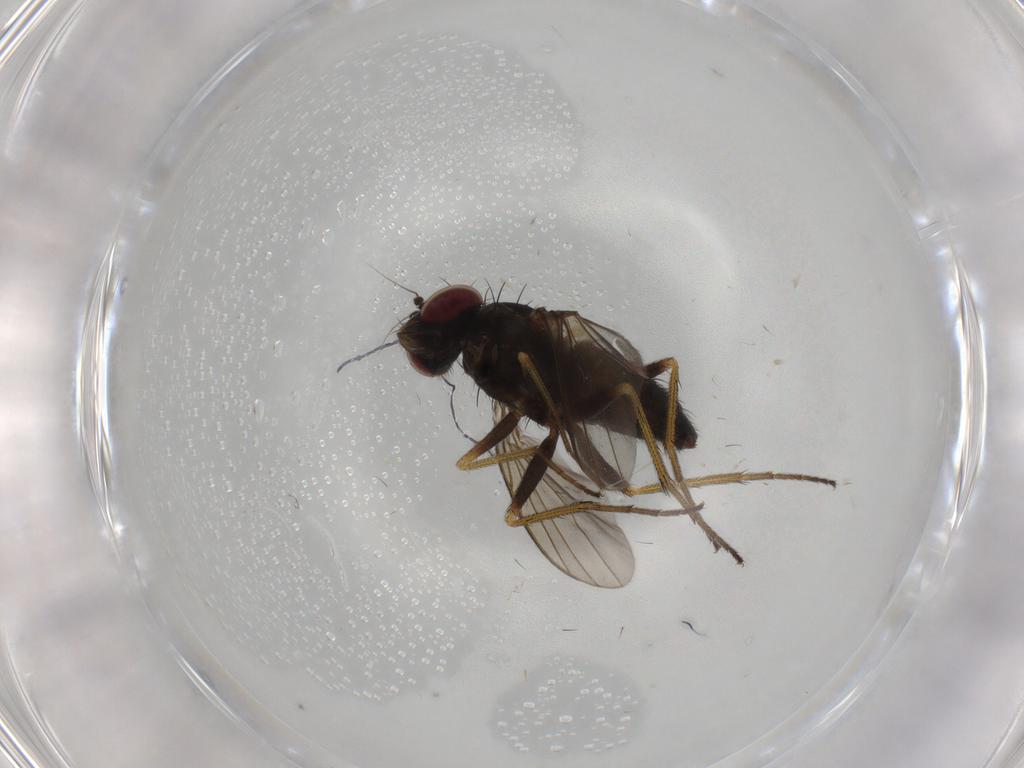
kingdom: Animalia
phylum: Arthropoda
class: Insecta
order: Diptera
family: Dolichopodidae
